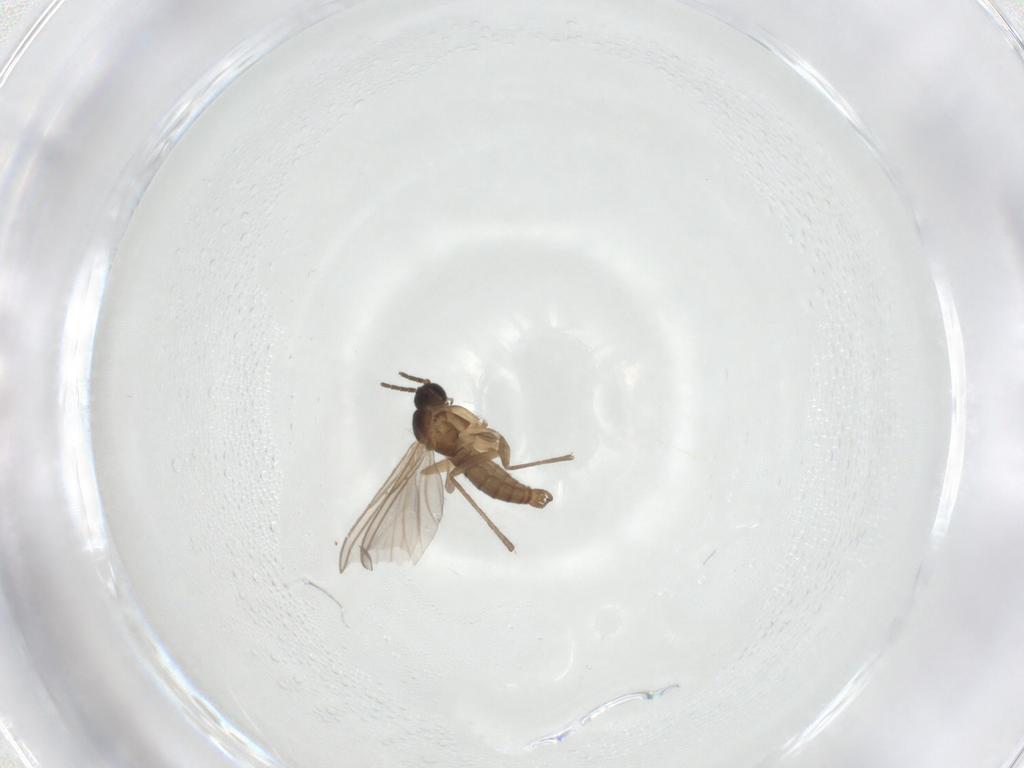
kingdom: Animalia
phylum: Arthropoda
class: Insecta
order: Diptera
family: Sciaridae
